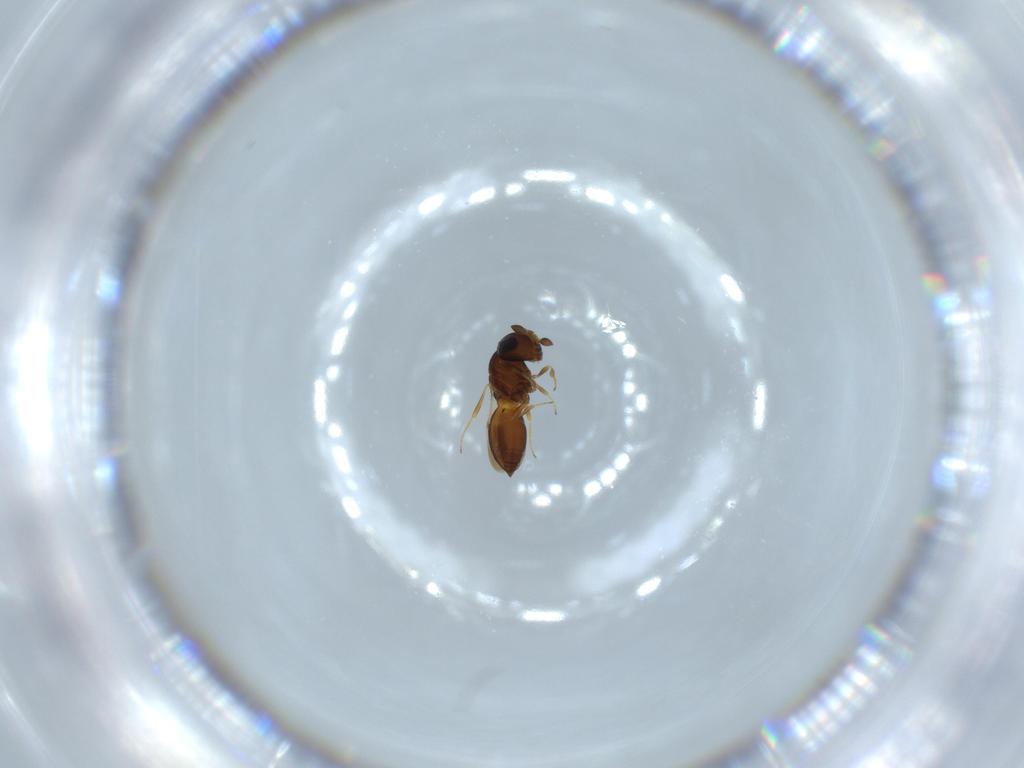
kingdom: Animalia
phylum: Arthropoda
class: Insecta
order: Hymenoptera
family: Scelionidae
